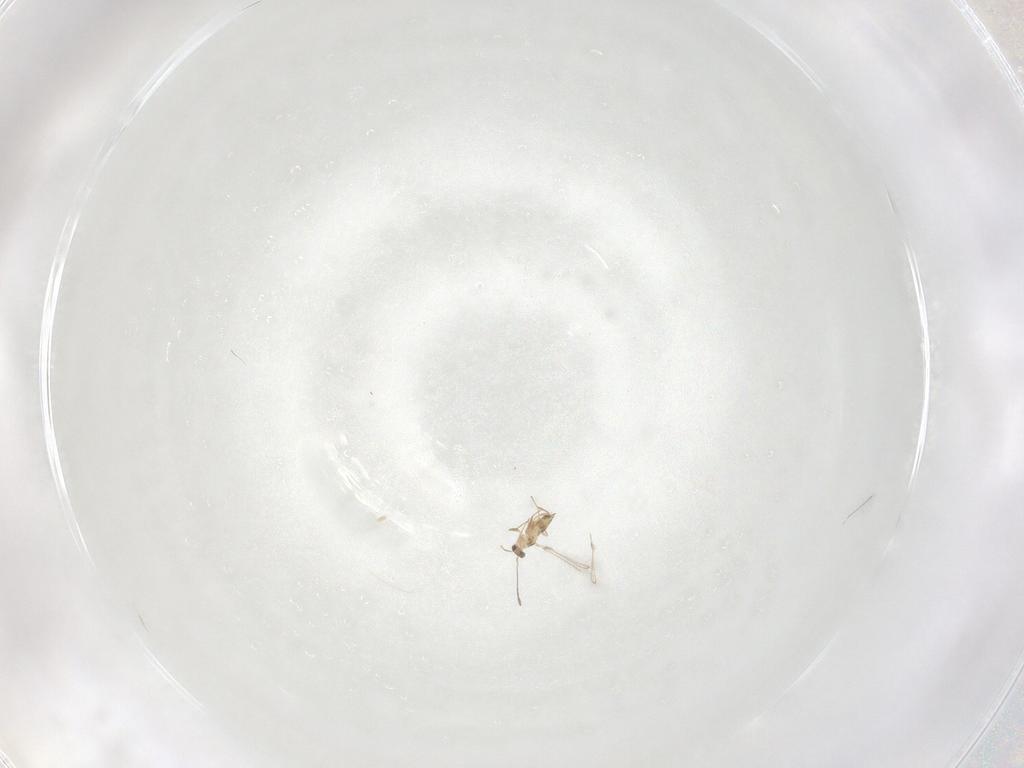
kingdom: Animalia
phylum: Arthropoda
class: Insecta
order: Hymenoptera
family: Mymaridae
